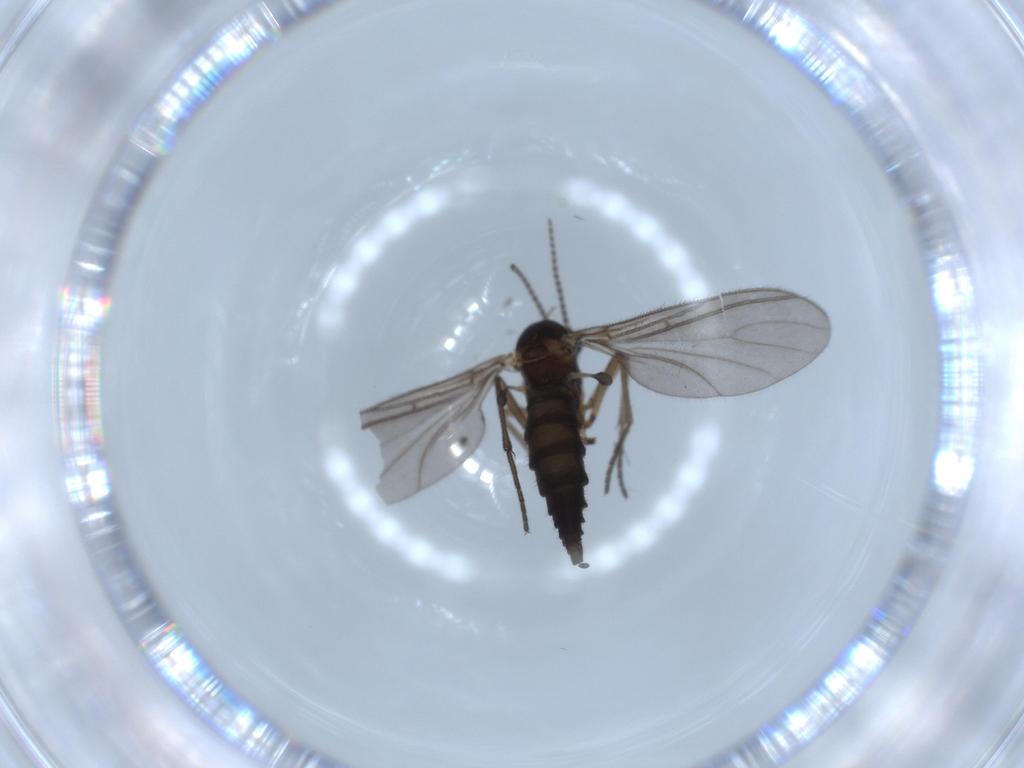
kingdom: Animalia
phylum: Arthropoda
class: Insecta
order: Diptera
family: Sciaridae
